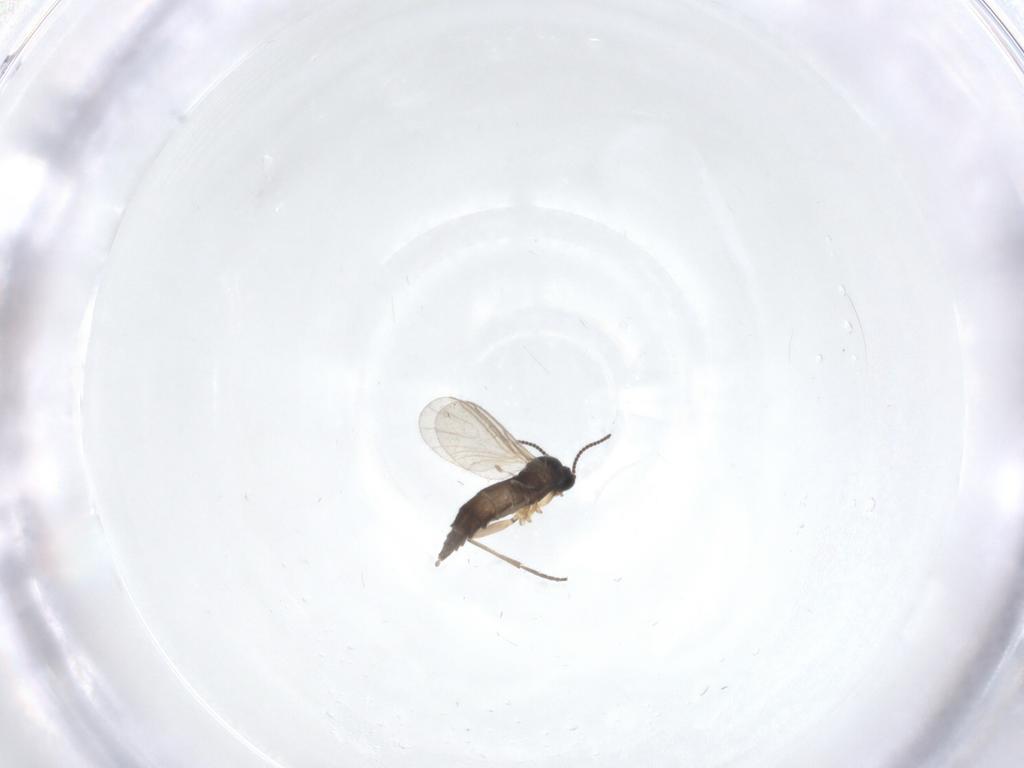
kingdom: Animalia
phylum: Arthropoda
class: Insecta
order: Diptera
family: Sciaridae
